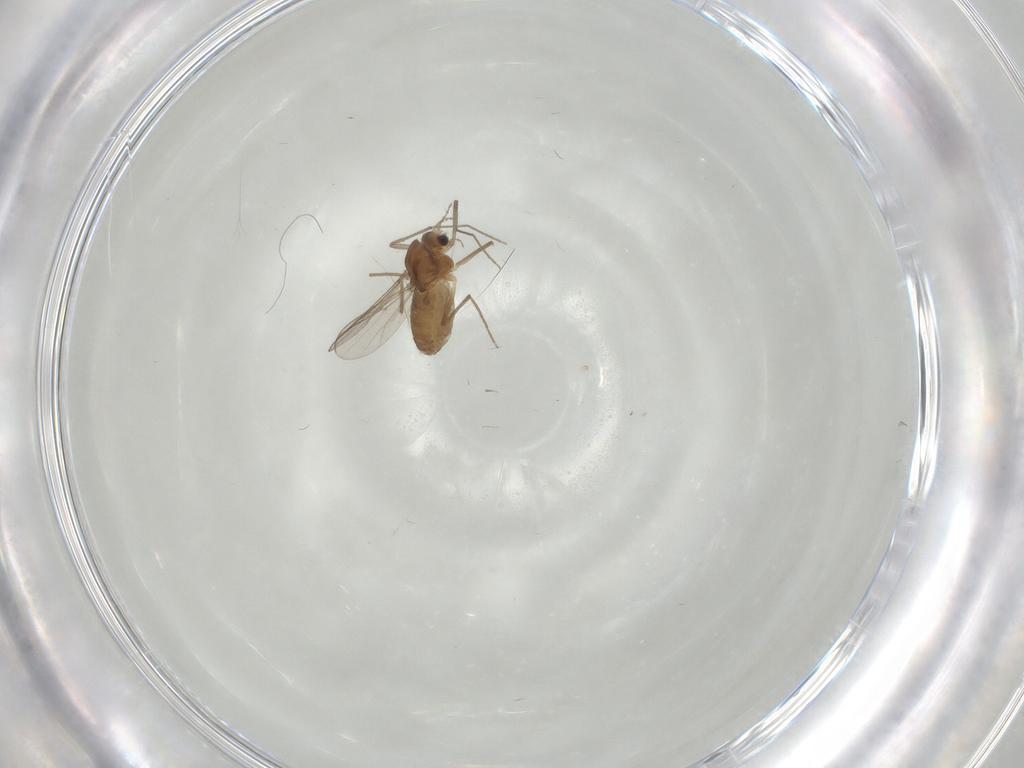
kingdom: Animalia
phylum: Arthropoda
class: Insecta
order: Diptera
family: Chironomidae
